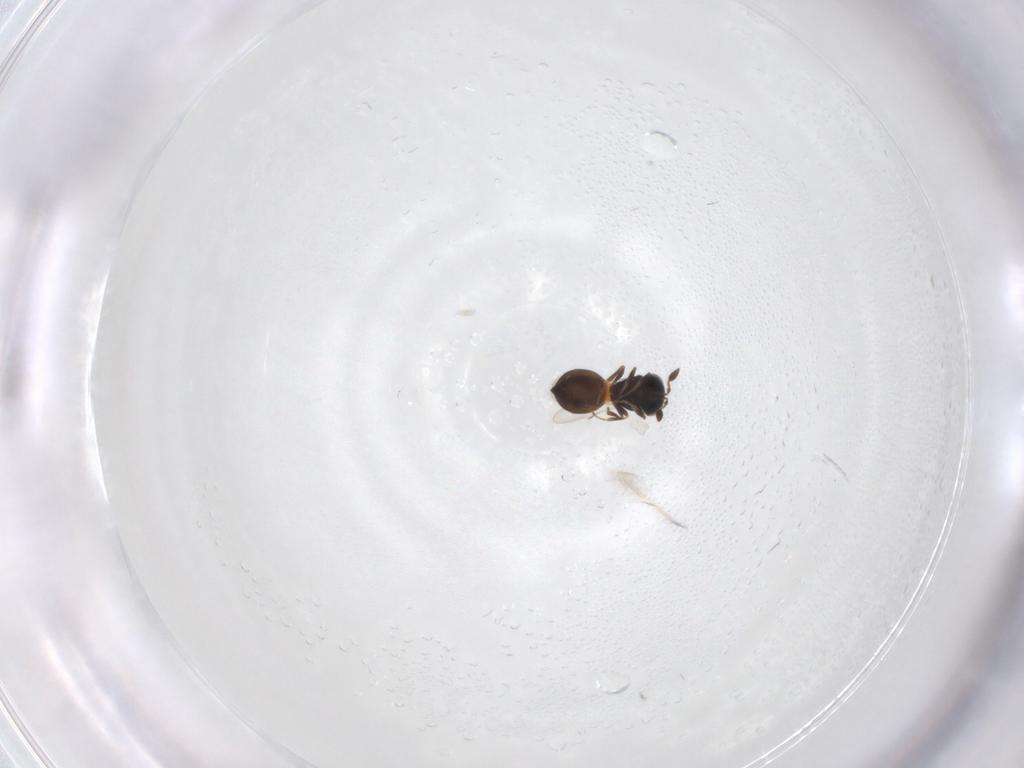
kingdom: Animalia
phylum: Arthropoda
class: Insecta
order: Hymenoptera
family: Scelionidae
